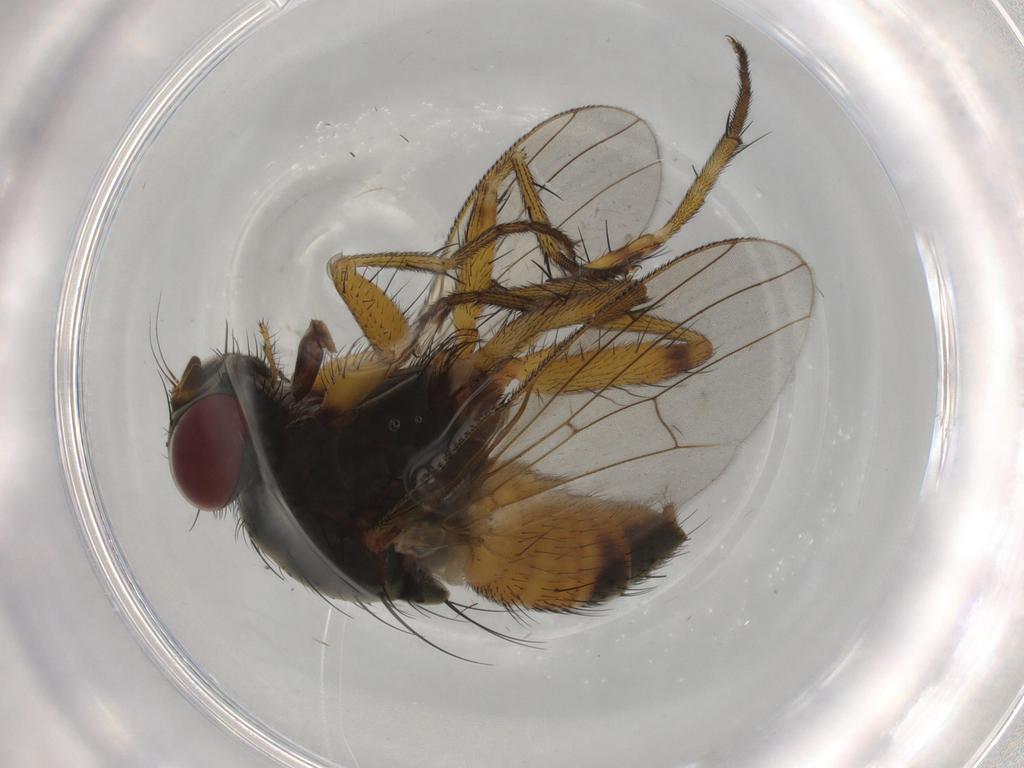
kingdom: Animalia
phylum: Arthropoda
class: Insecta
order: Diptera
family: Muscidae
